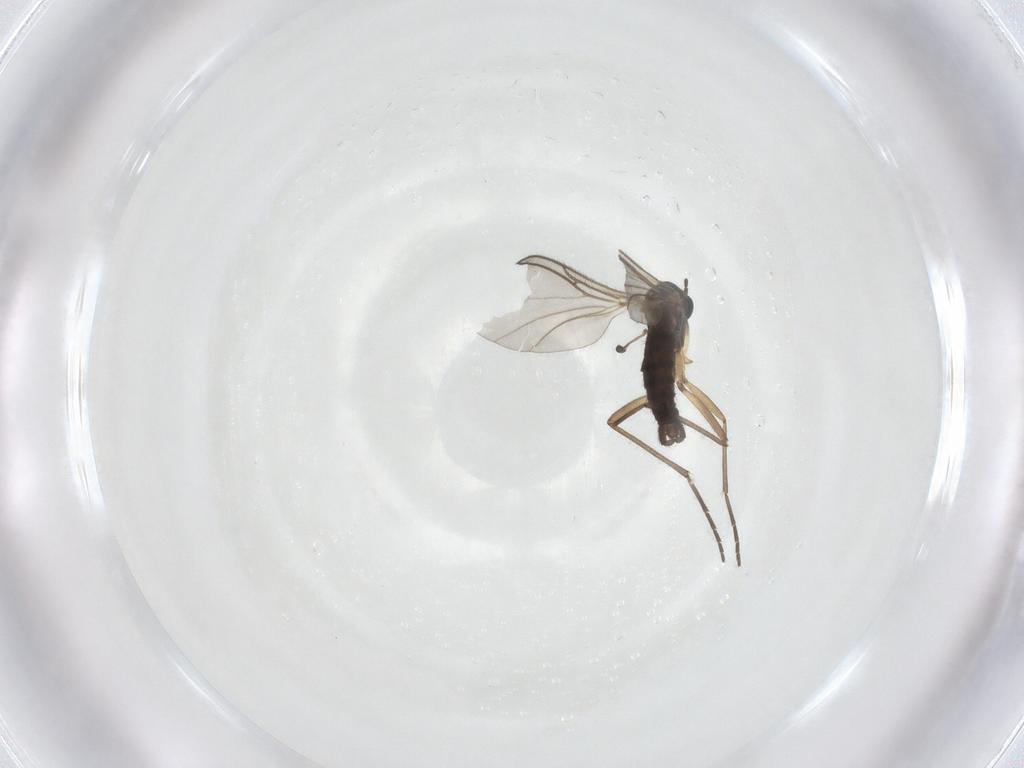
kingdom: Animalia
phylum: Arthropoda
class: Insecta
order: Diptera
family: Sciaridae
